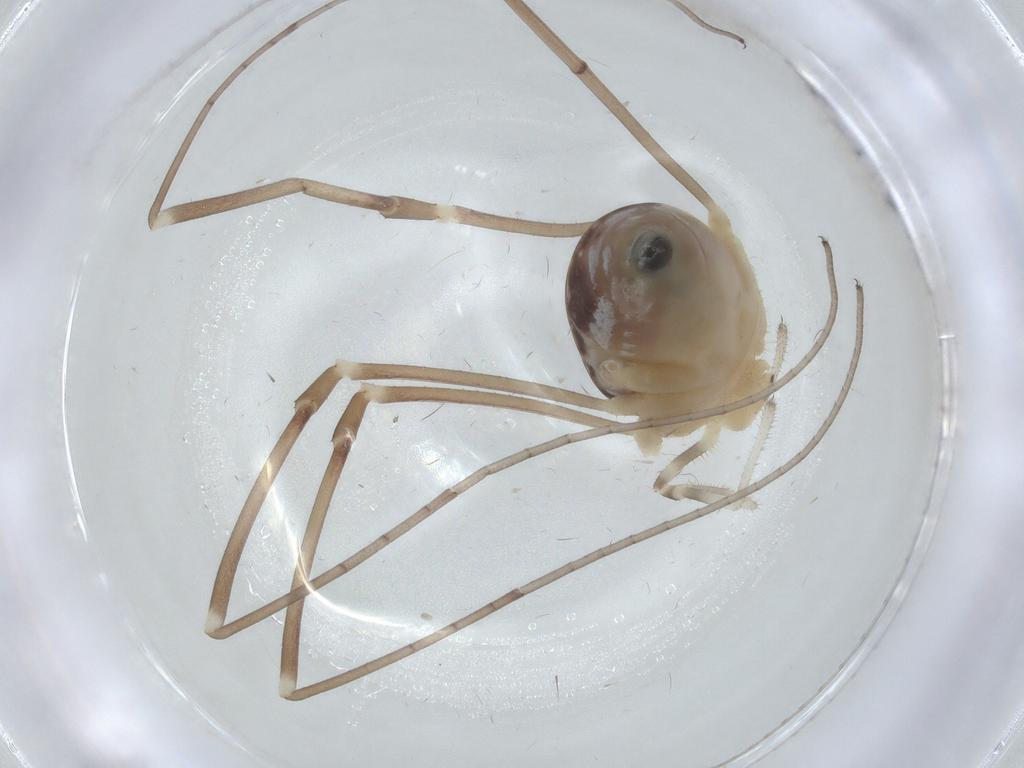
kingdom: Animalia
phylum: Arthropoda
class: Arachnida
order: Opiliones
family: Sclerosomatidae
